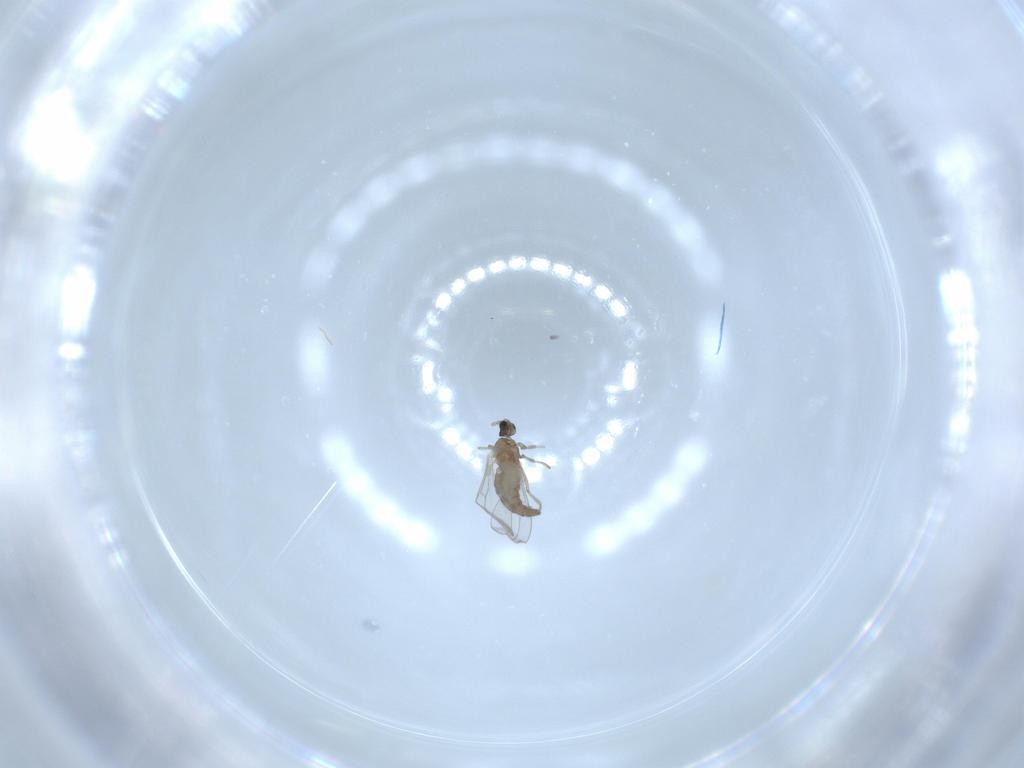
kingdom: Animalia
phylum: Arthropoda
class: Insecta
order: Diptera
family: Cecidomyiidae
